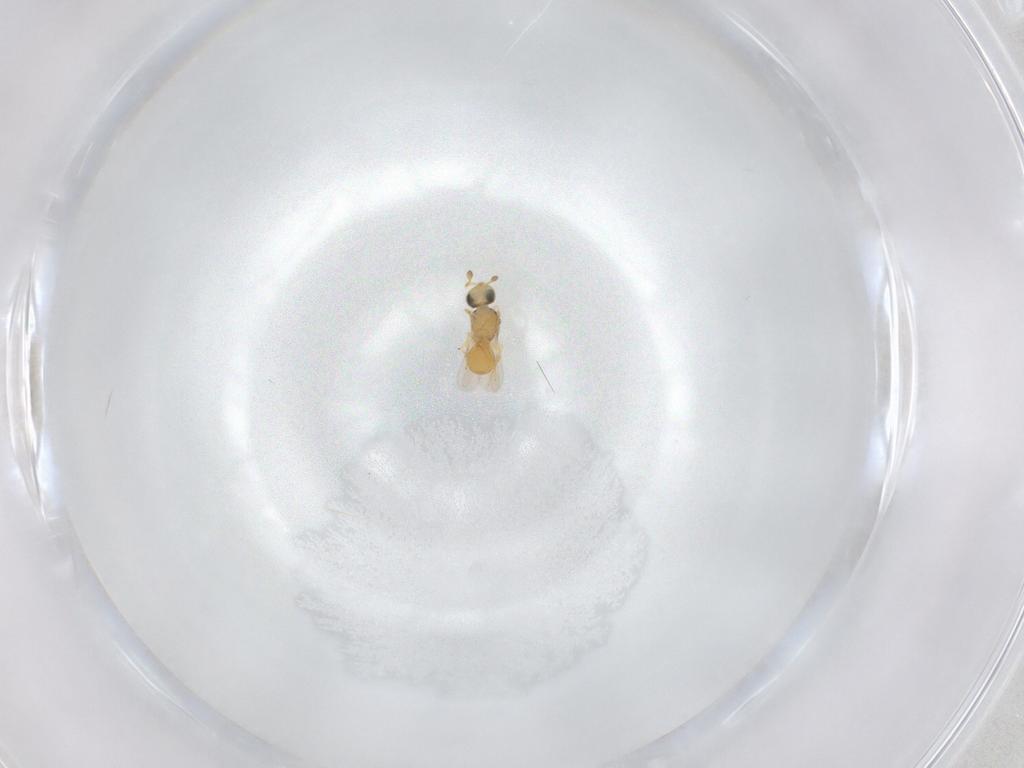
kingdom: Animalia
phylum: Arthropoda
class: Insecta
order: Hymenoptera
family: Scelionidae
